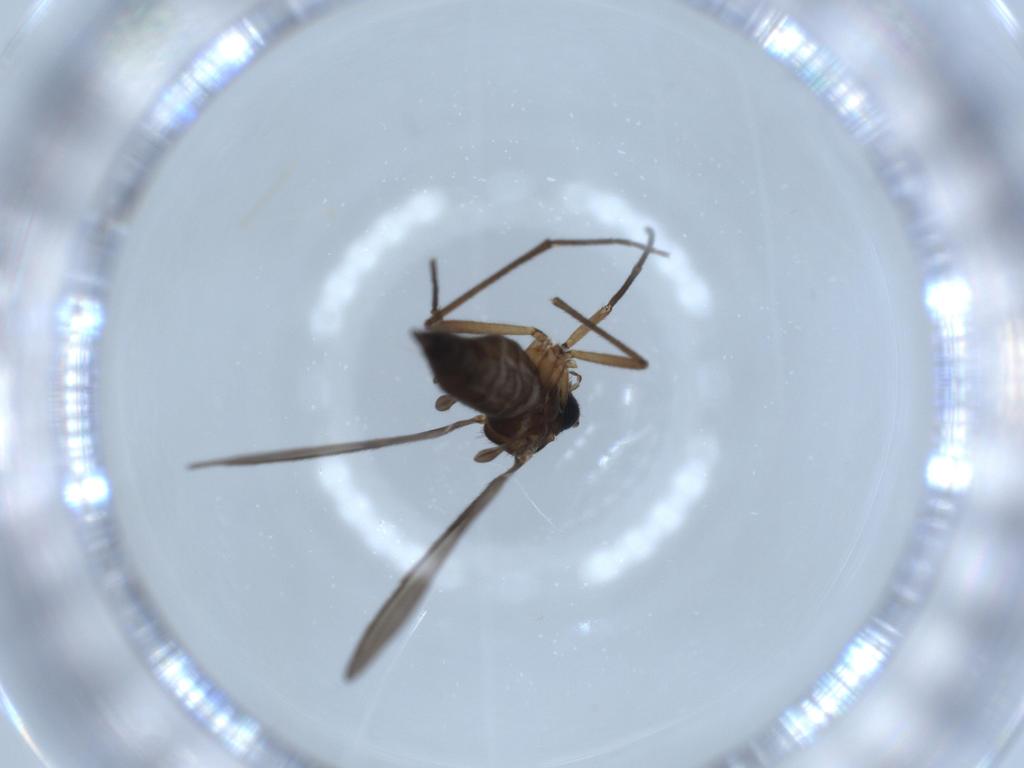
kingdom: Animalia
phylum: Arthropoda
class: Insecta
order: Diptera
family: Sciaridae
